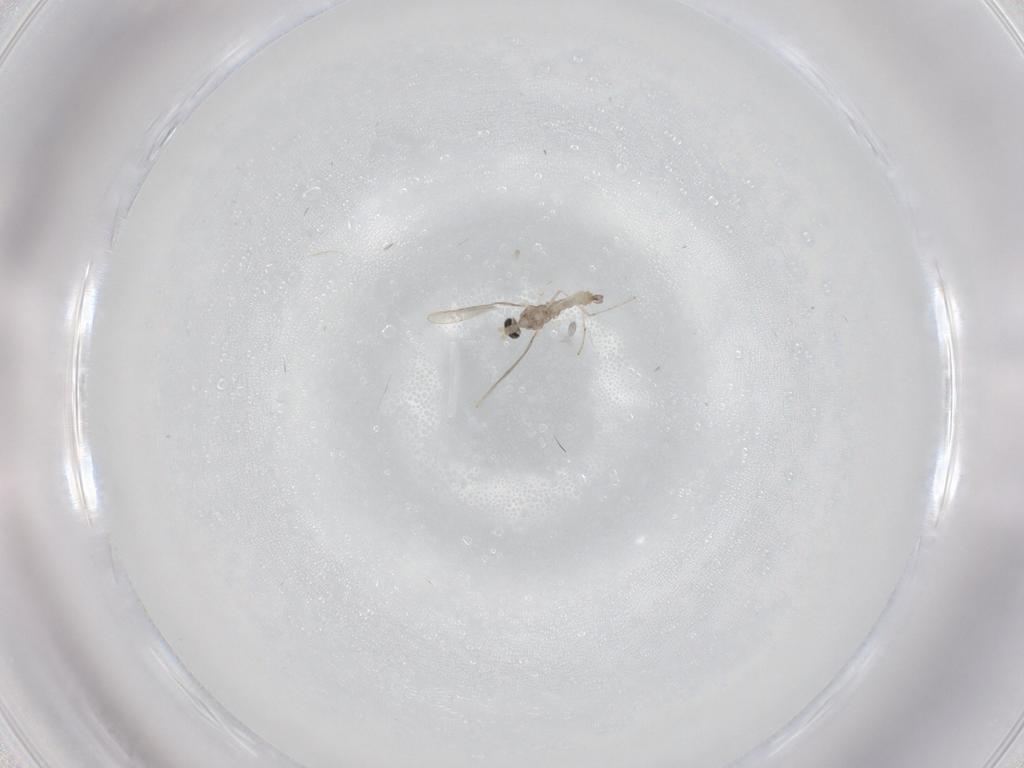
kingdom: Animalia
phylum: Arthropoda
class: Insecta
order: Diptera
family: Cecidomyiidae
